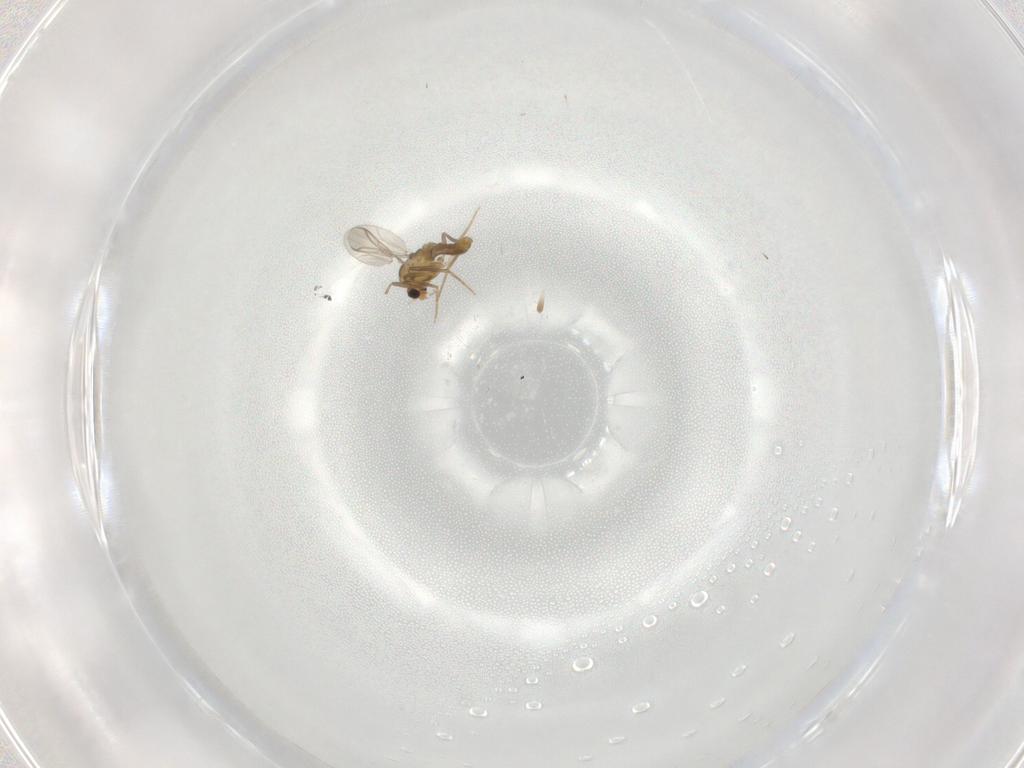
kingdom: Animalia
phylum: Arthropoda
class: Insecta
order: Diptera
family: Chironomidae
